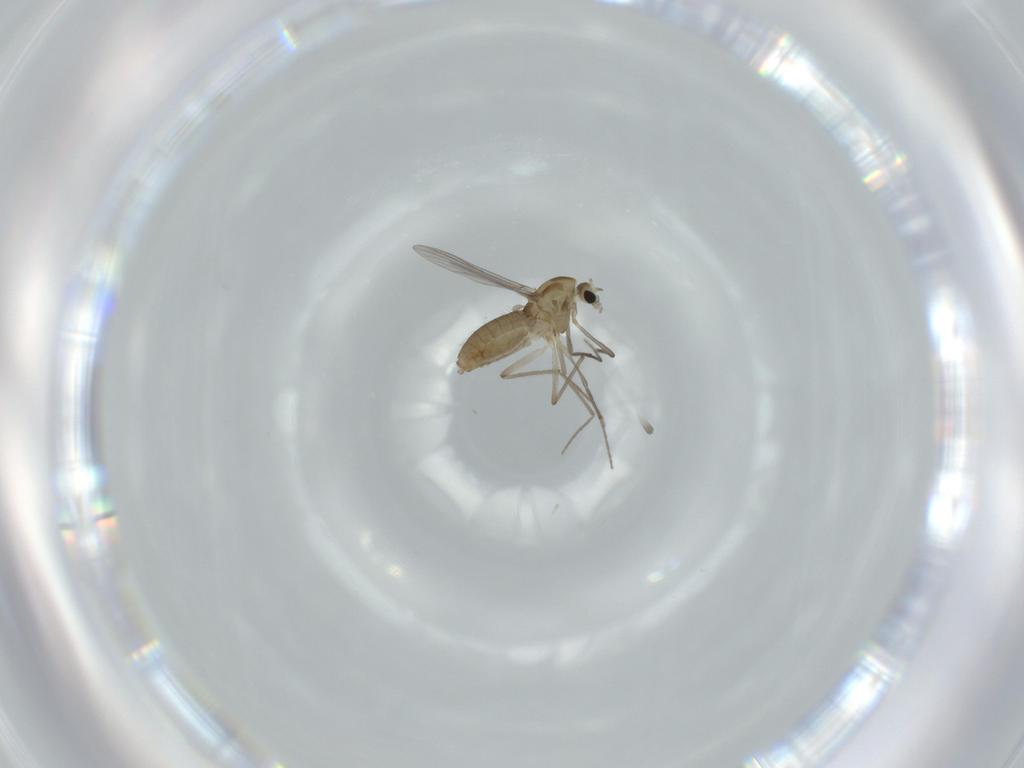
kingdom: Animalia
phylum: Arthropoda
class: Insecta
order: Diptera
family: Chironomidae
